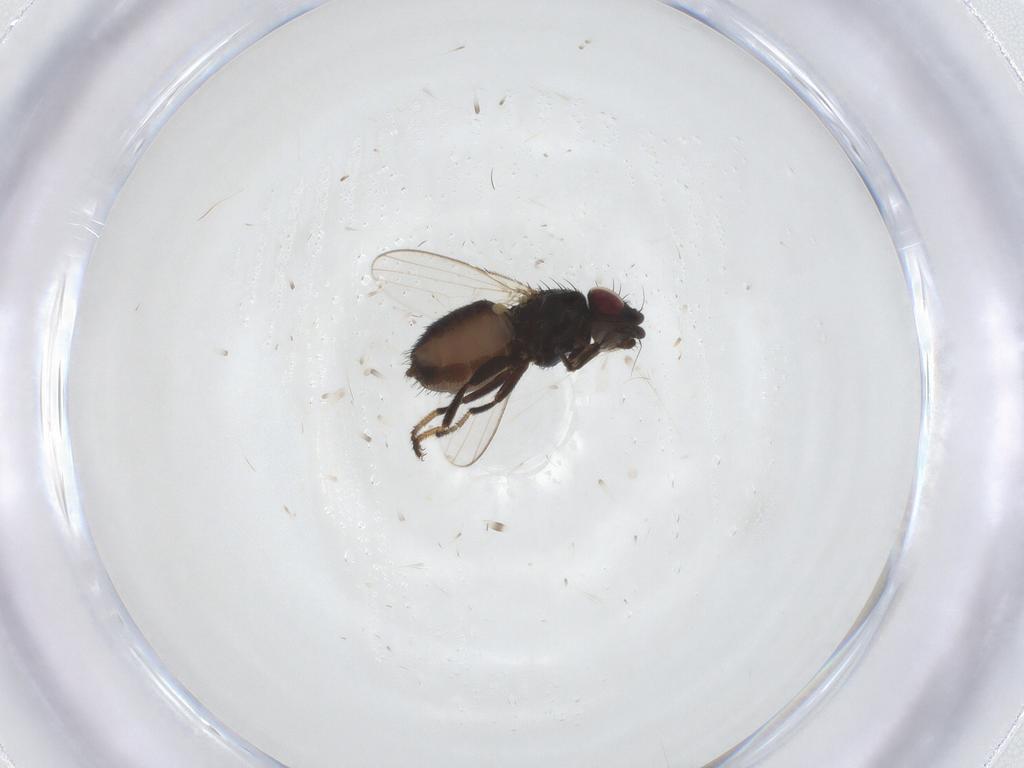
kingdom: Animalia
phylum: Arthropoda
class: Insecta
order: Diptera
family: Milichiidae
